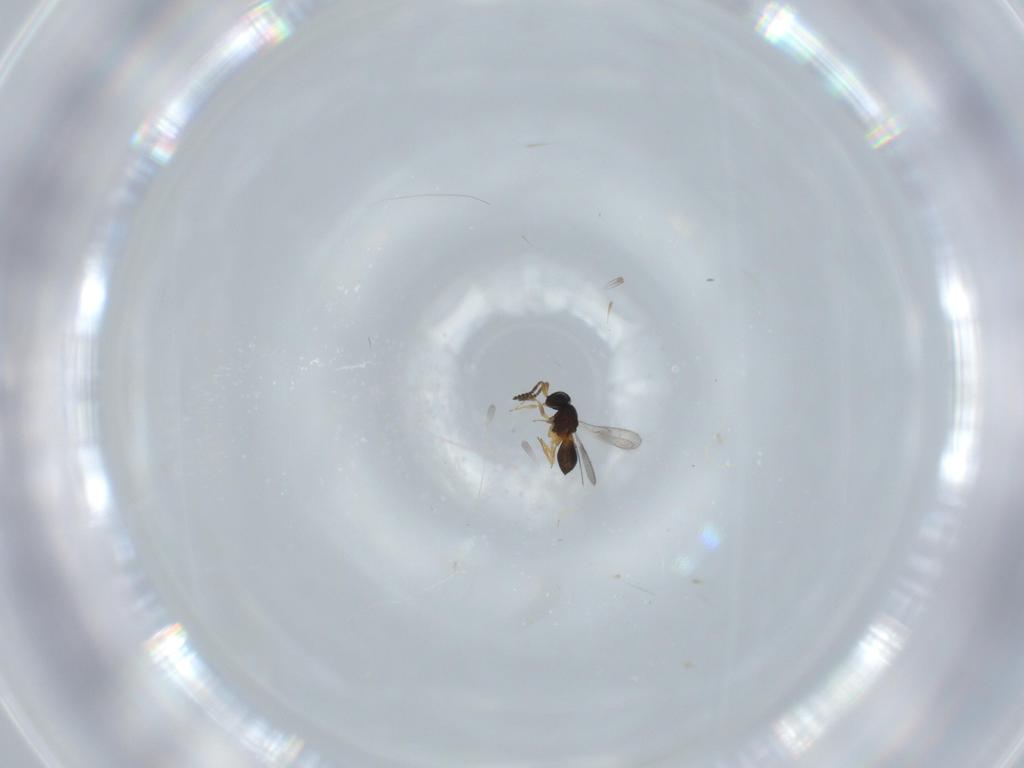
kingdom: Animalia
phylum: Arthropoda
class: Insecta
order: Hymenoptera
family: Scelionidae
